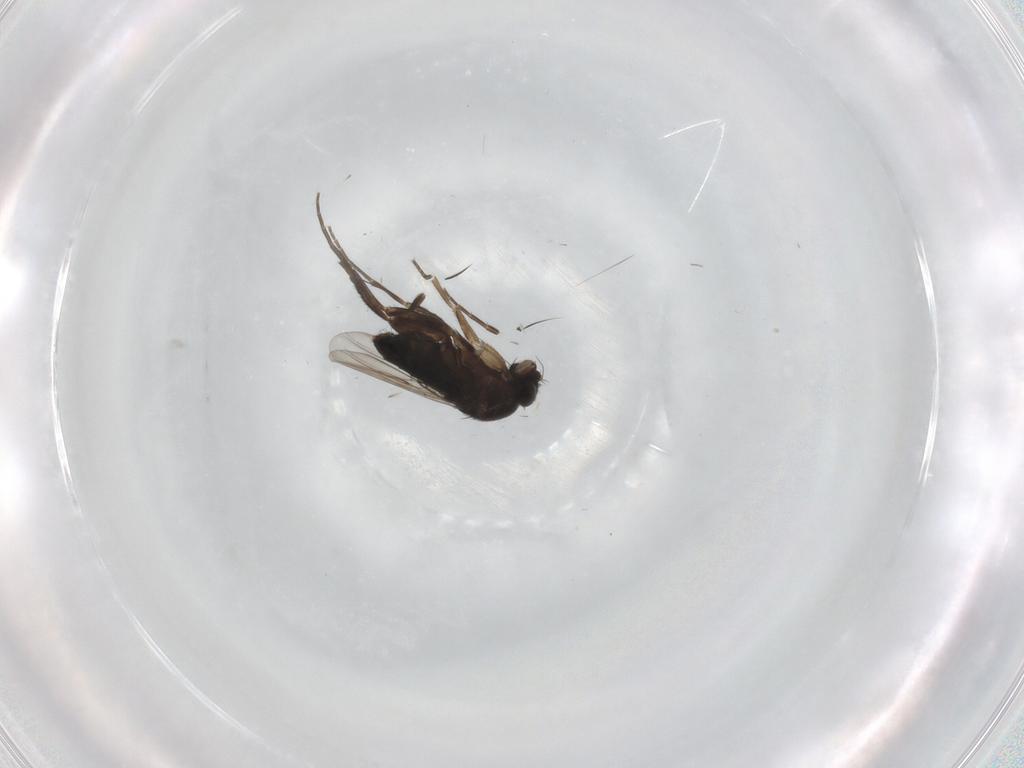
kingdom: Animalia
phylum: Arthropoda
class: Insecta
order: Diptera
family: Phoridae
